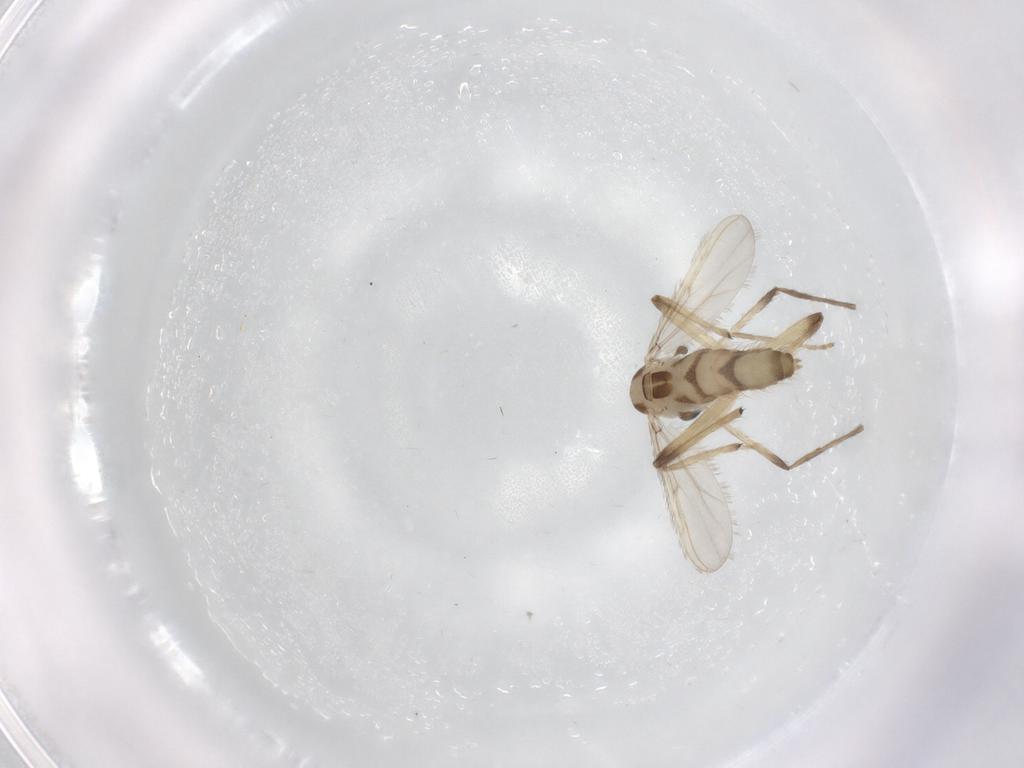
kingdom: Animalia
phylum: Arthropoda
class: Insecta
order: Diptera
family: Chironomidae
